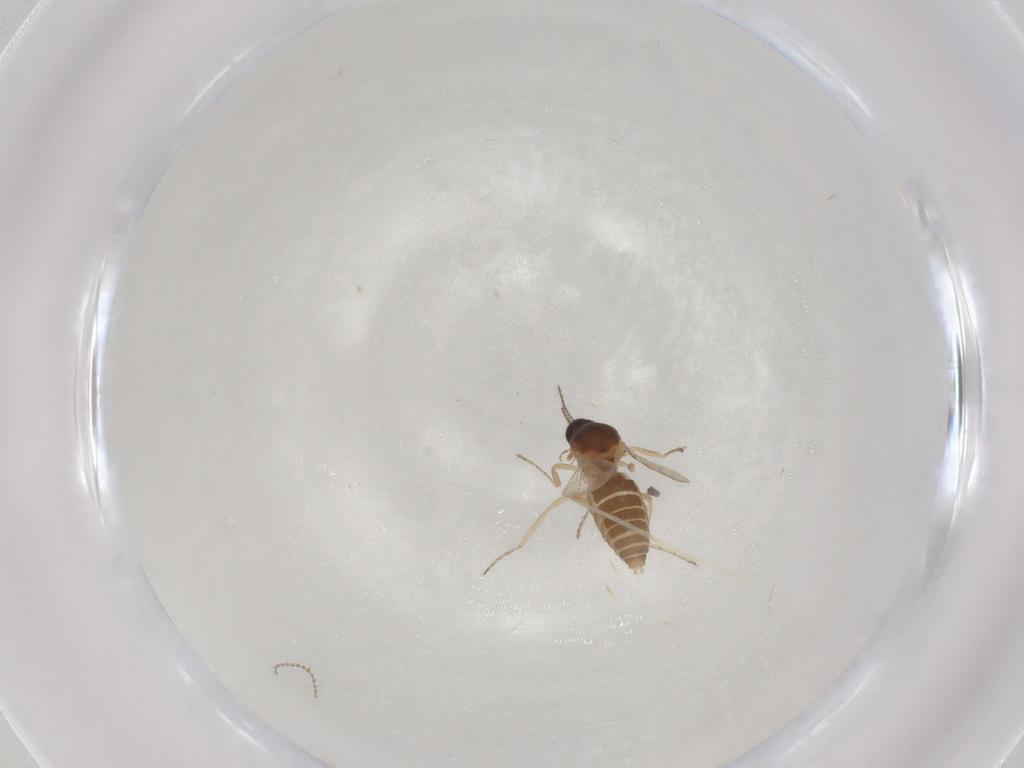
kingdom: Animalia
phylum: Arthropoda
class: Insecta
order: Diptera
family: Ceratopogonidae
